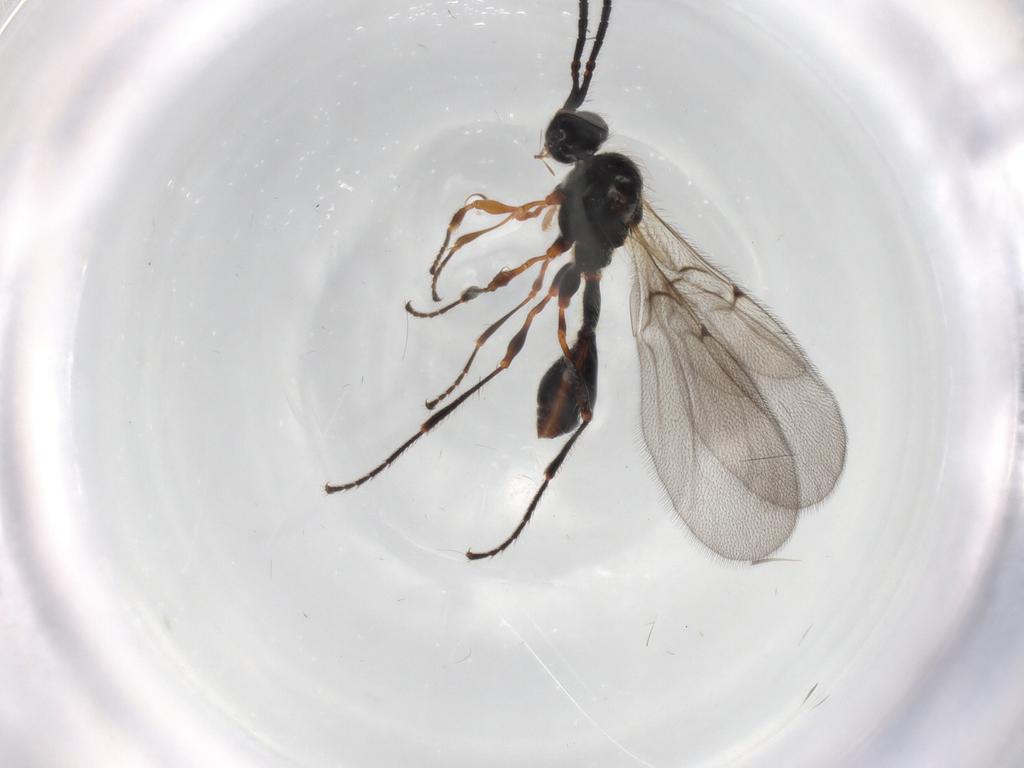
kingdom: Animalia
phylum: Arthropoda
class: Insecta
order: Hymenoptera
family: Diapriidae
